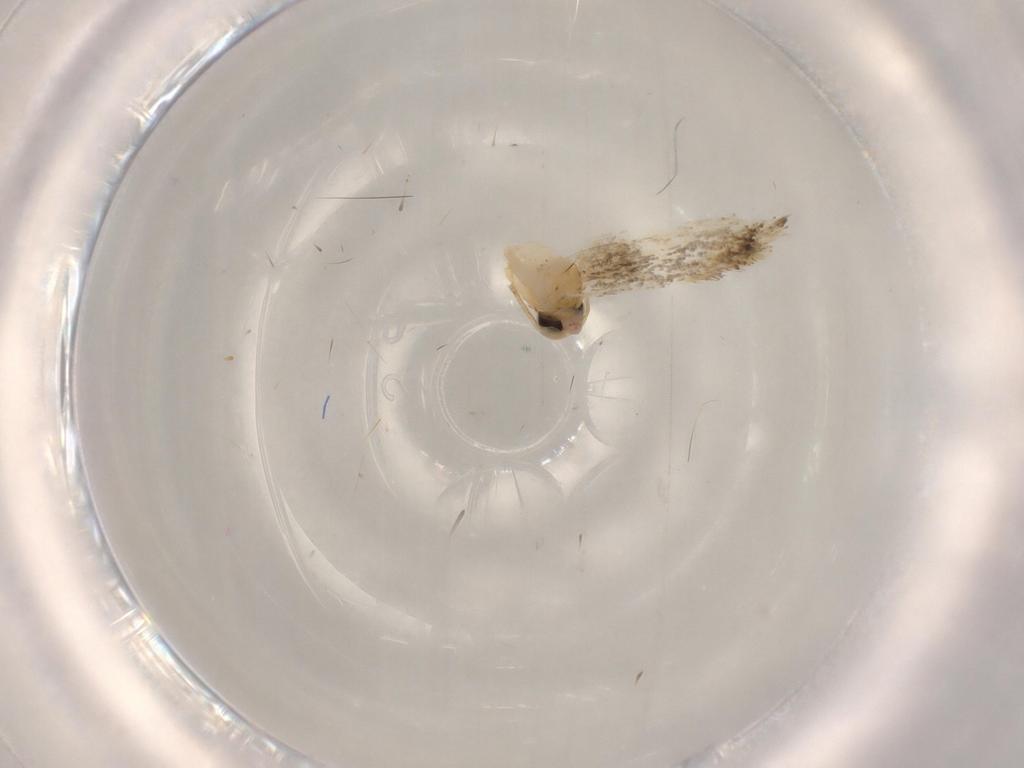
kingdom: Animalia
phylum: Arthropoda
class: Insecta
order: Lepidoptera
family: Bucculatricidae
